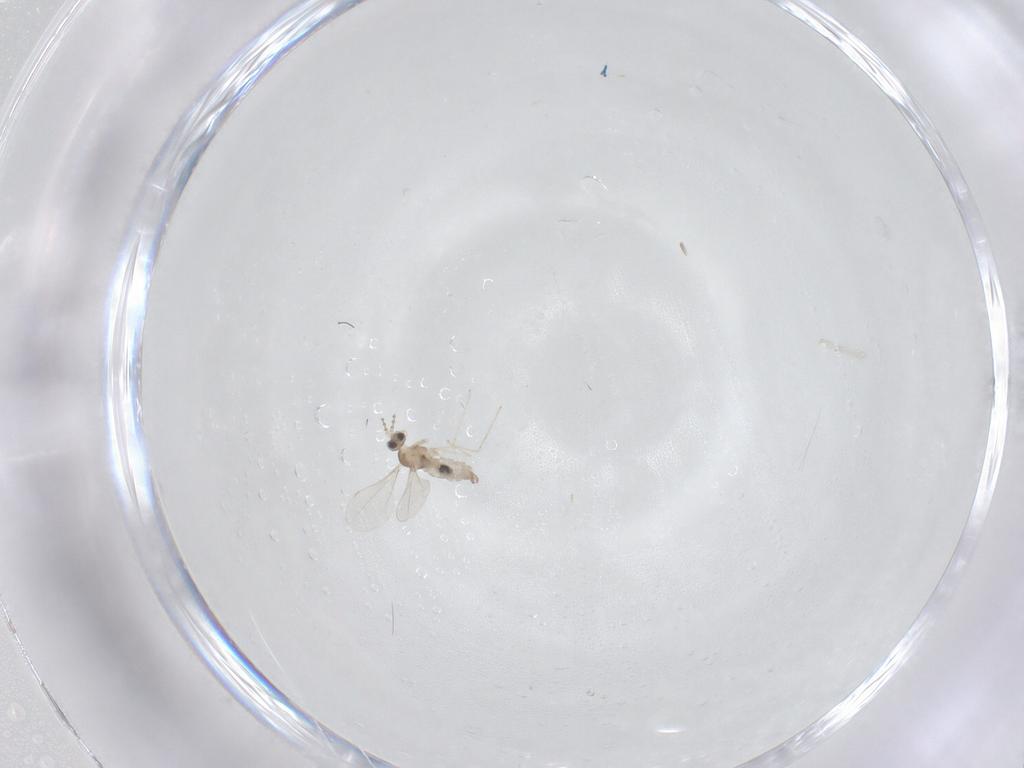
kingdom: Animalia
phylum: Arthropoda
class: Insecta
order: Diptera
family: Cecidomyiidae
